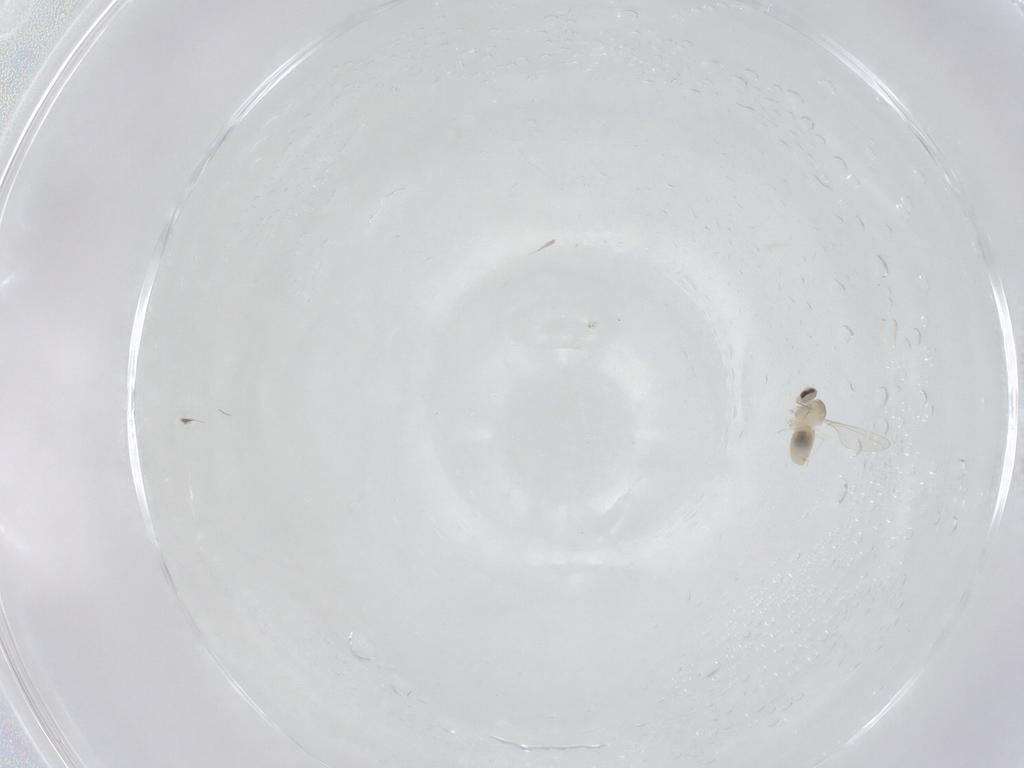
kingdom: Animalia
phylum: Arthropoda
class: Insecta
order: Diptera
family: Cecidomyiidae
